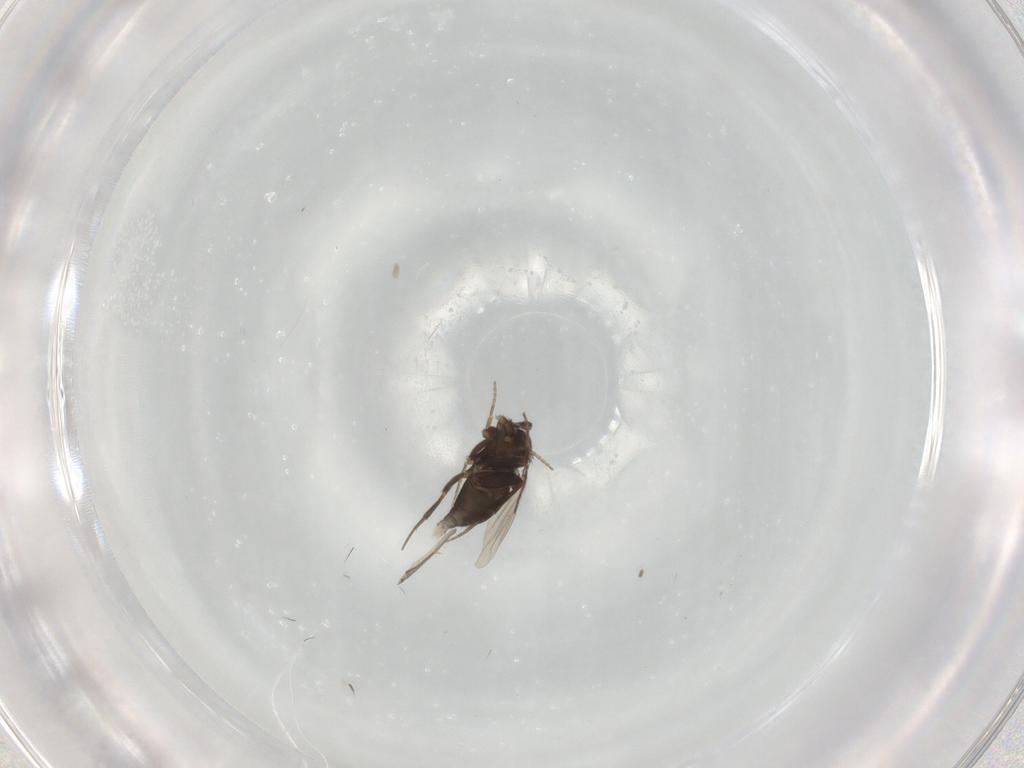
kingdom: Animalia
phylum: Arthropoda
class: Insecta
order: Diptera
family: Phoridae
